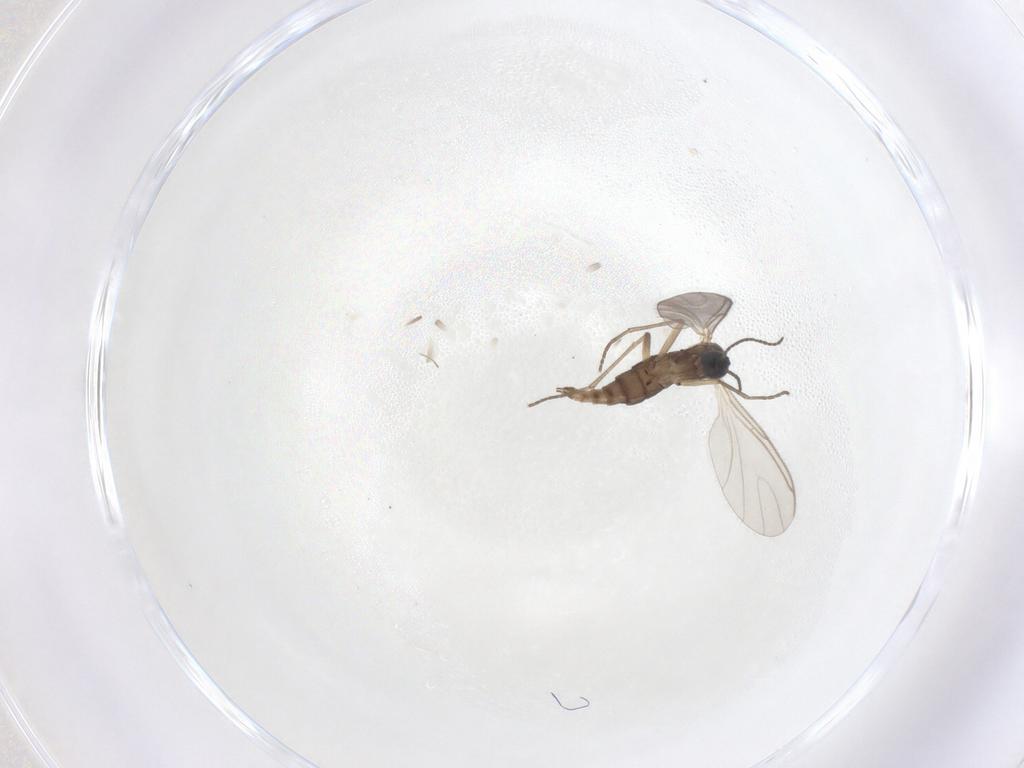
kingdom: Animalia
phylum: Arthropoda
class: Insecta
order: Diptera
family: Sciaridae
